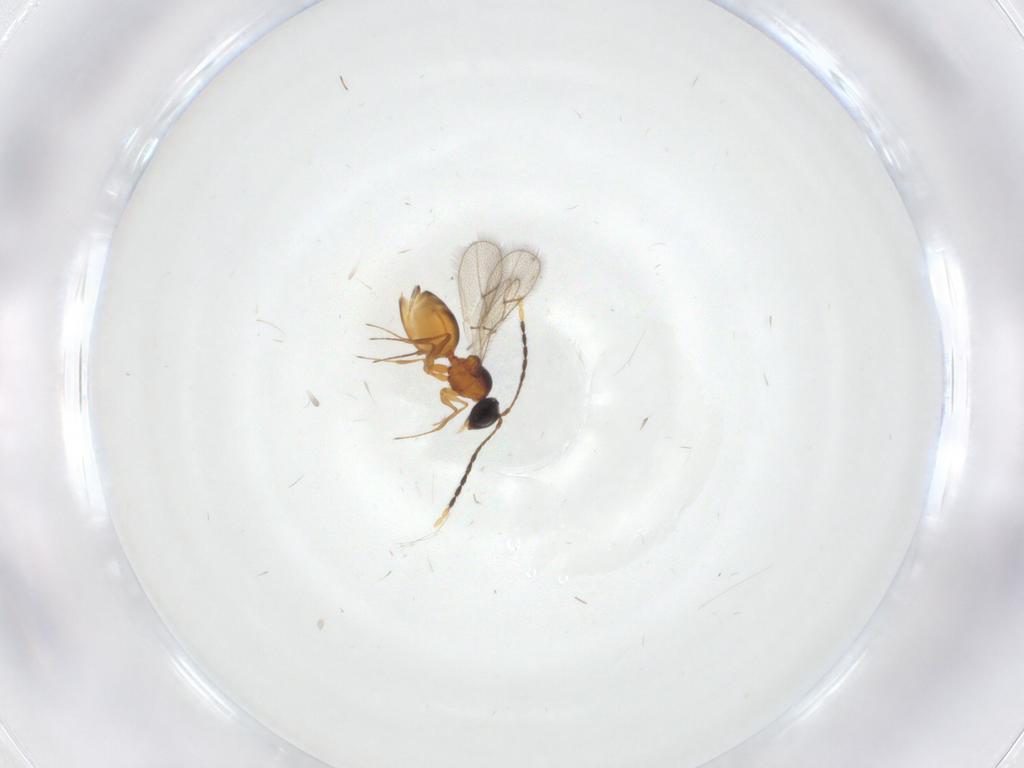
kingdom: Animalia
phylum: Arthropoda
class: Insecta
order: Hymenoptera
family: Figitidae
